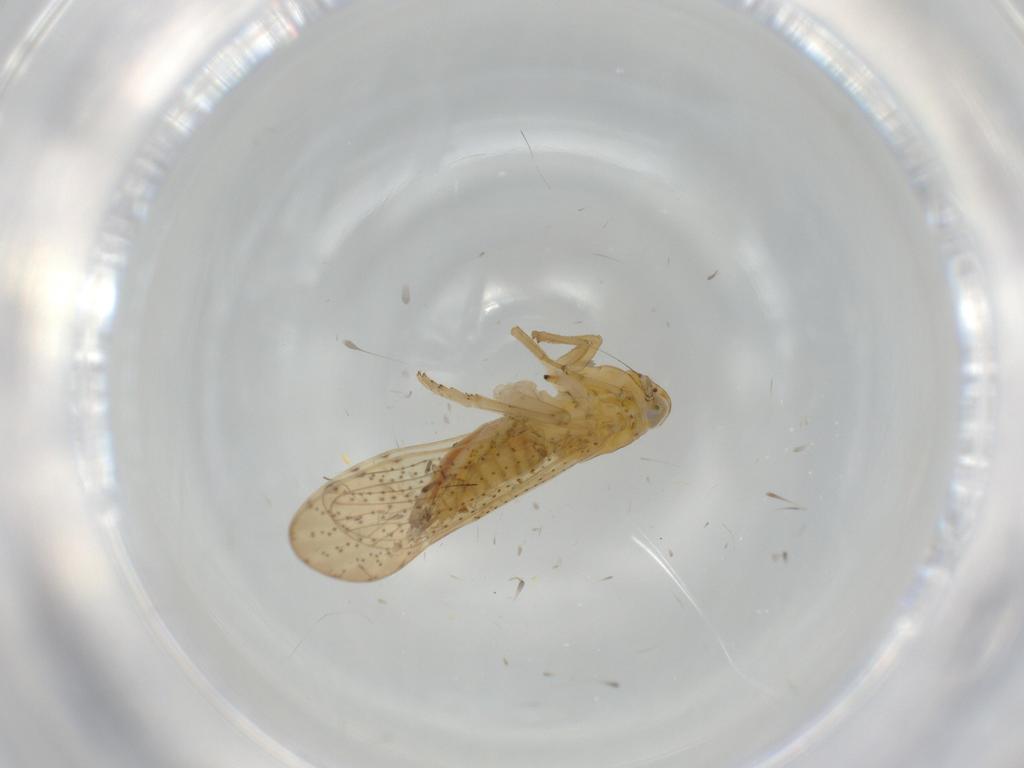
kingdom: Animalia
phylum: Arthropoda
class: Insecta
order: Hemiptera
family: Delphacidae
